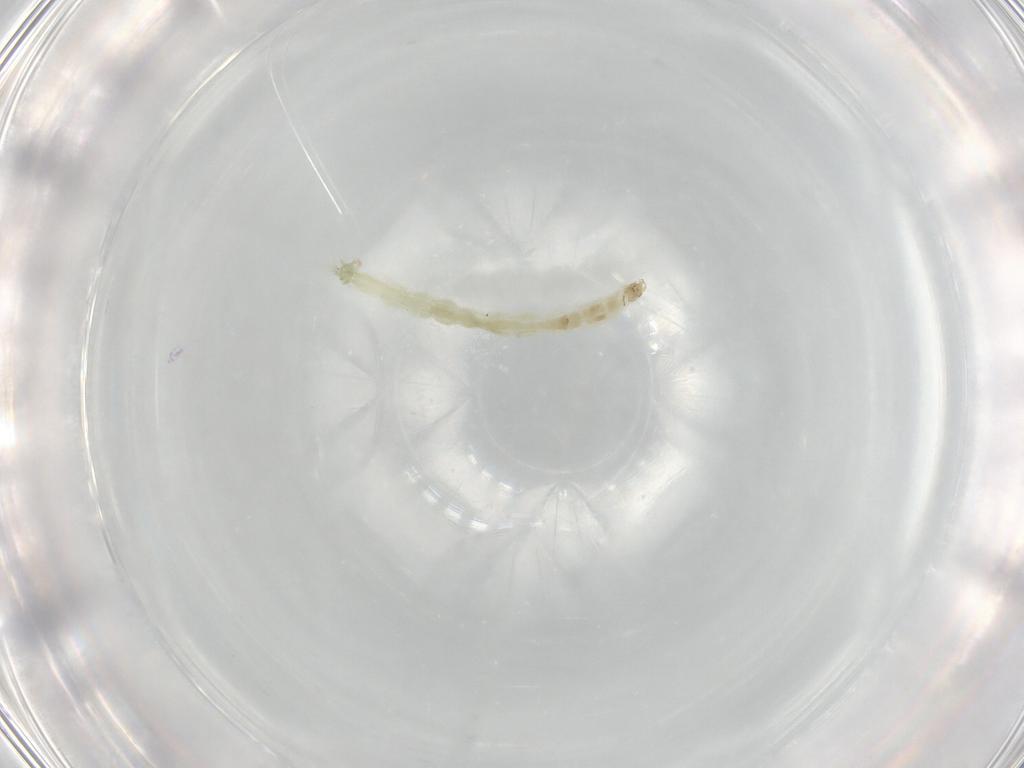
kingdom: Animalia
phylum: Arthropoda
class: Insecta
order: Diptera
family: Chironomidae
